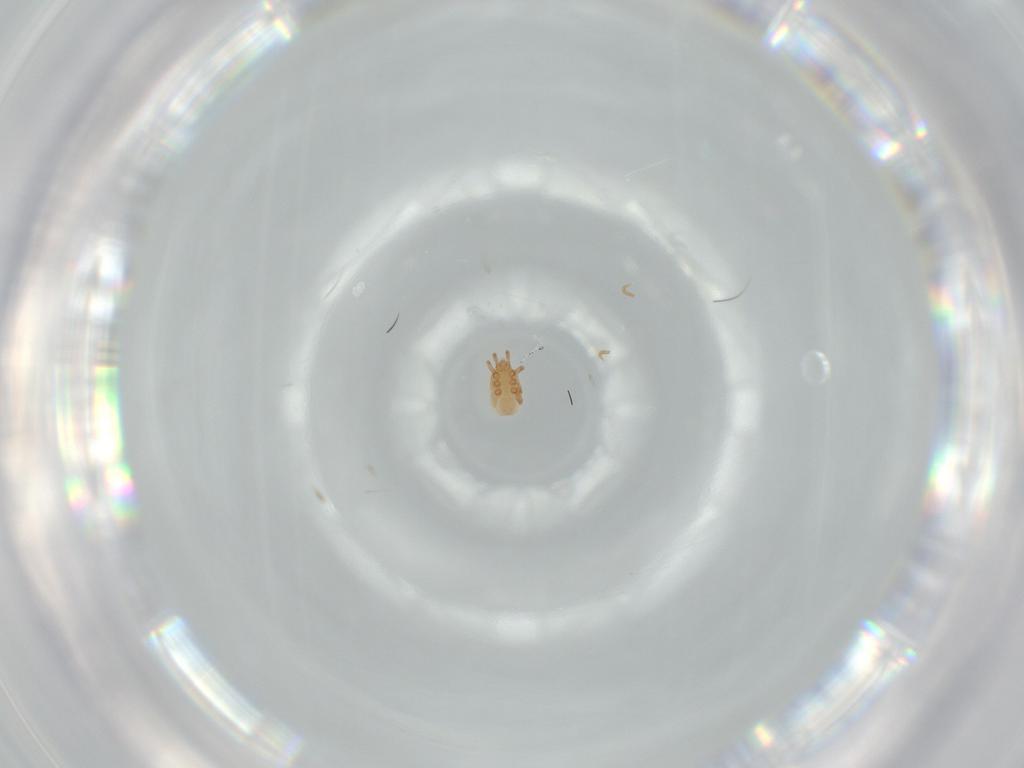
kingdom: Animalia
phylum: Arthropoda
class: Arachnida
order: Mesostigmata
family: Dinychidae
